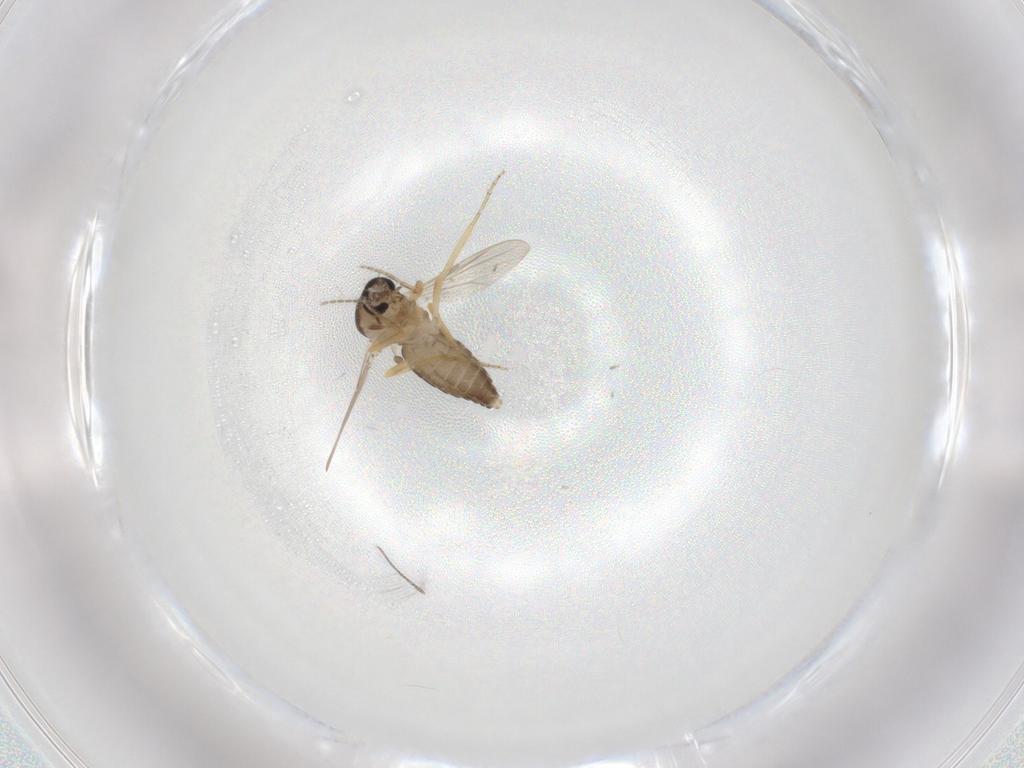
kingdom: Animalia
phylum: Arthropoda
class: Insecta
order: Diptera
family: Ceratopogonidae
